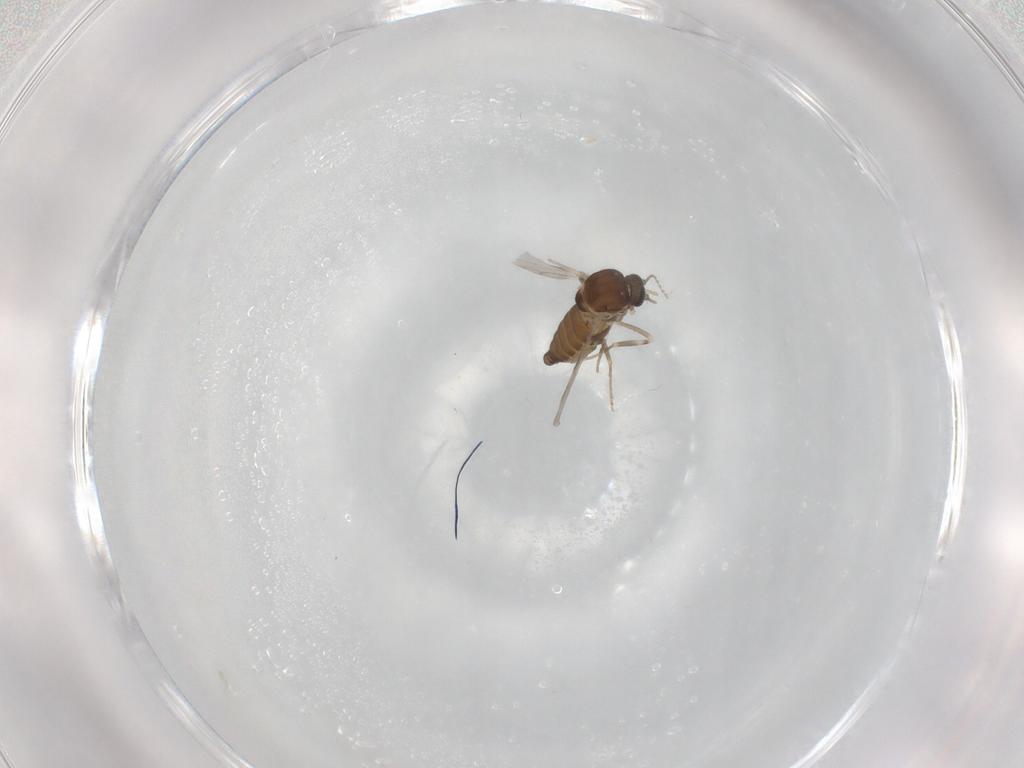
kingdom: Animalia
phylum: Arthropoda
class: Insecta
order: Diptera
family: Ceratopogonidae
